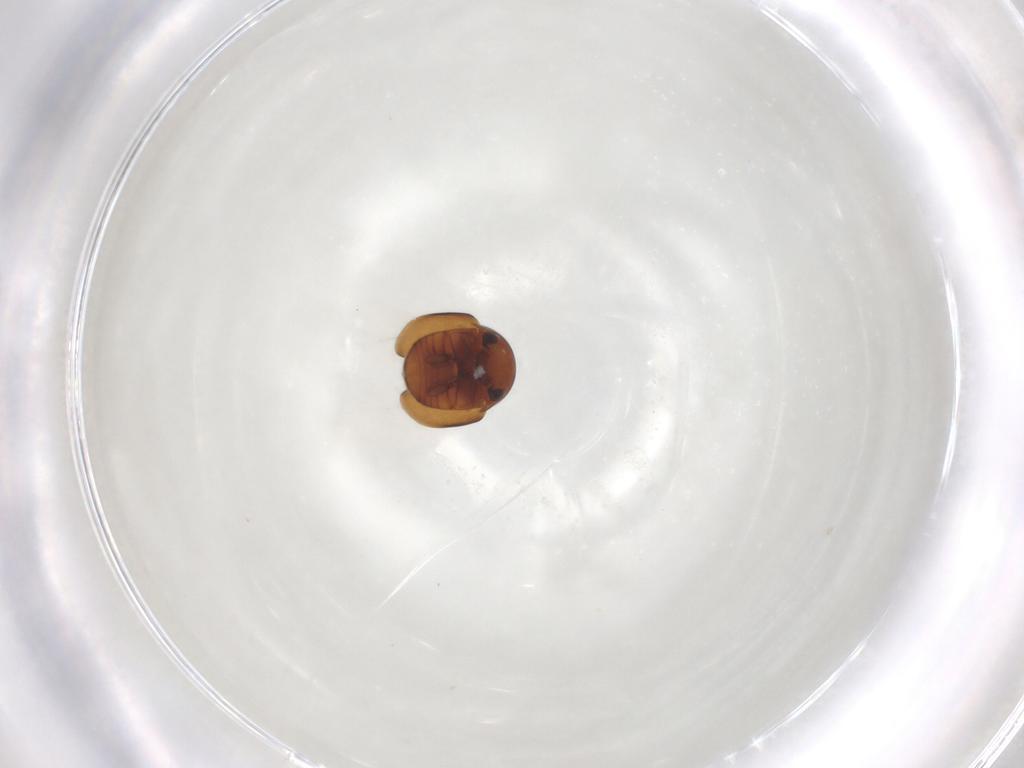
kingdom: Animalia
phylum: Arthropoda
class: Insecta
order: Coleoptera
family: Cybocephalidae
